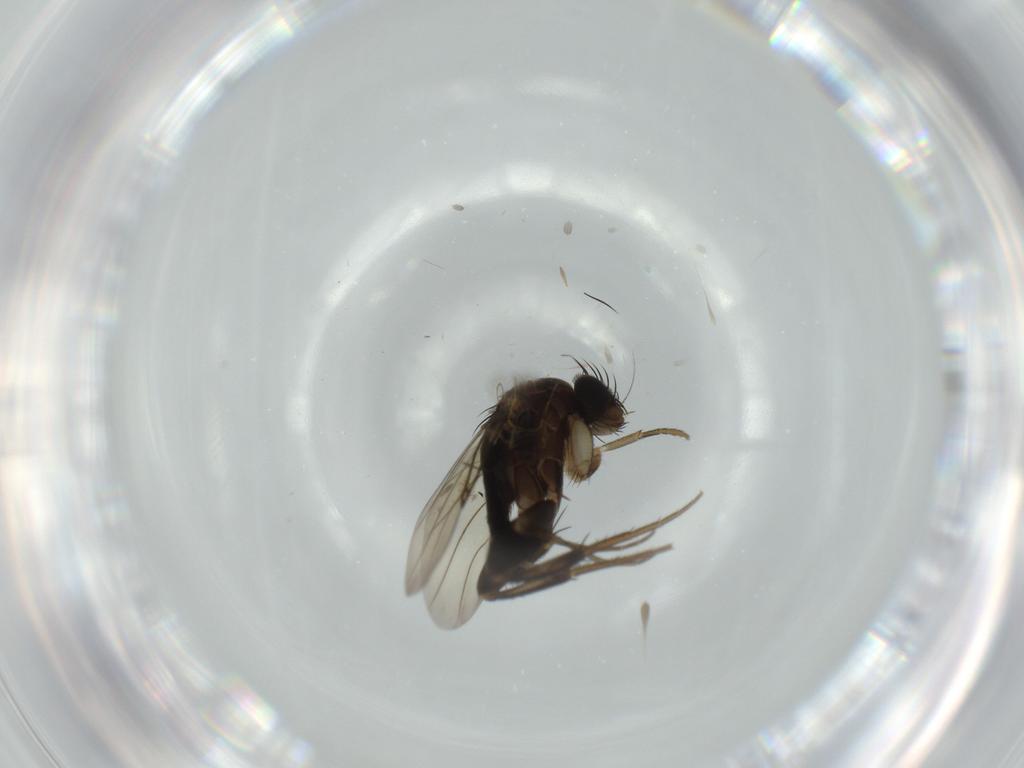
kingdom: Animalia
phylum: Arthropoda
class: Insecta
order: Diptera
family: Phoridae
